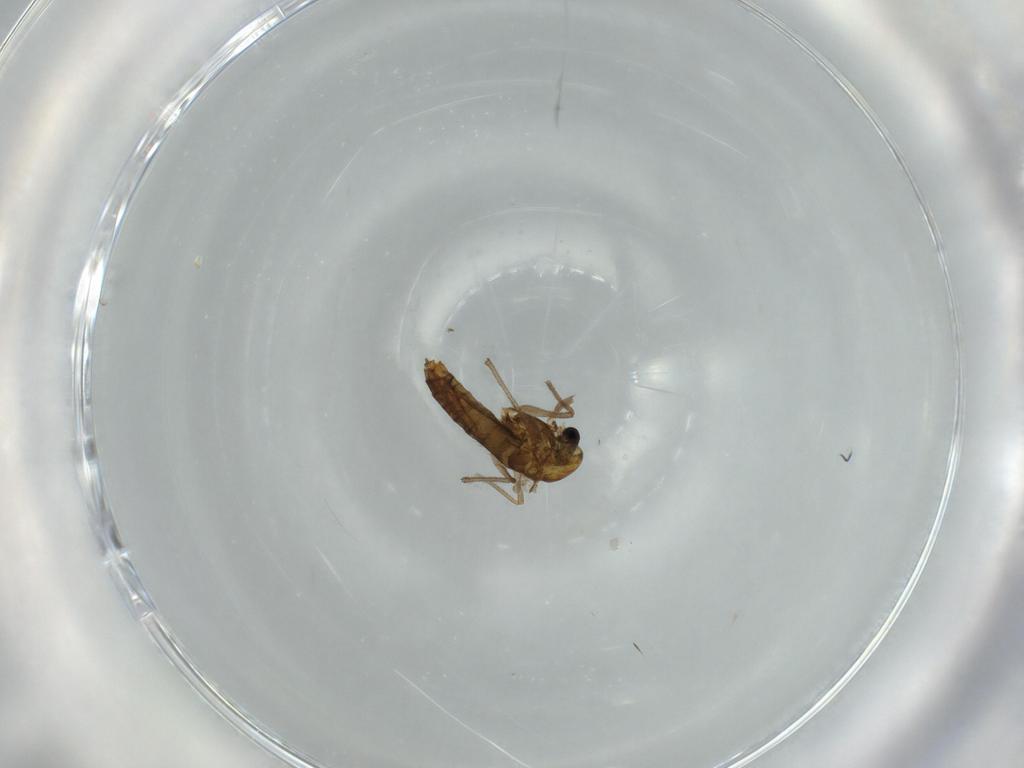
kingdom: Animalia
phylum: Arthropoda
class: Insecta
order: Diptera
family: Chironomidae
